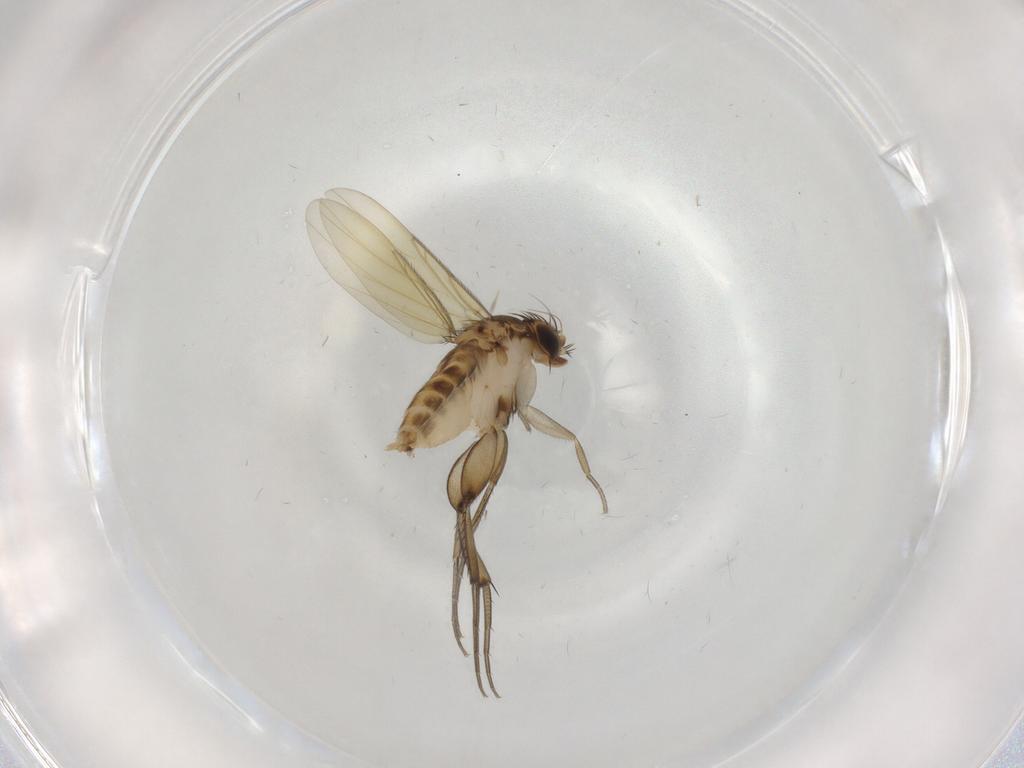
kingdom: Animalia
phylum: Arthropoda
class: Insecta
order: Diptera
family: Phoridae
